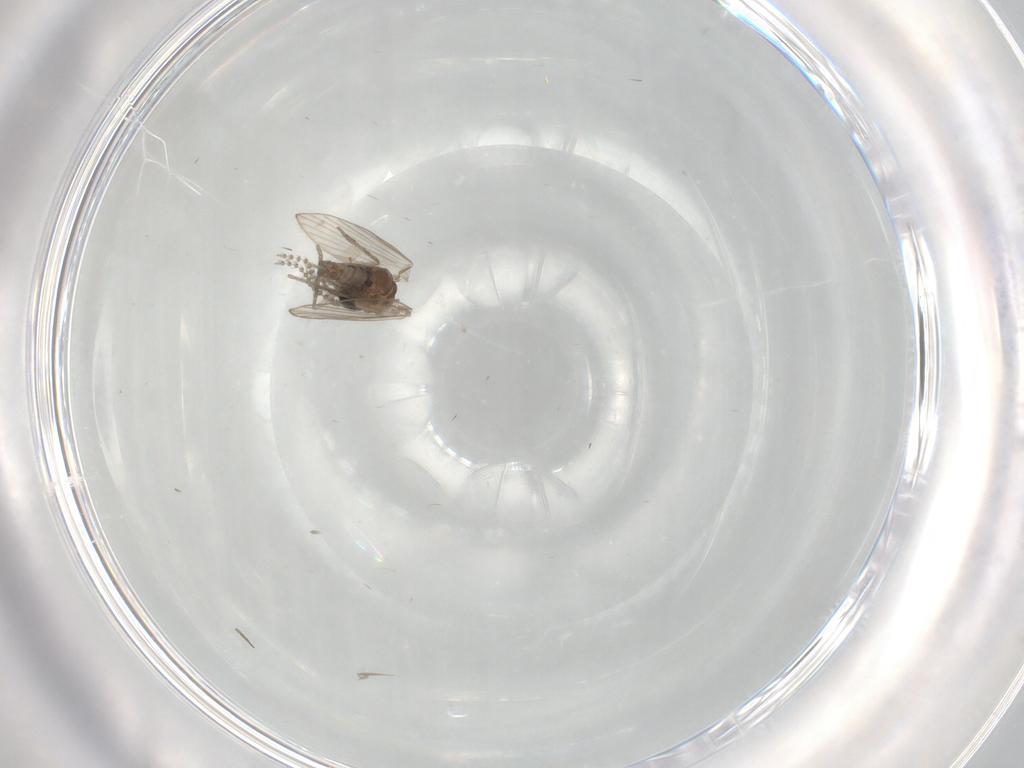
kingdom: Animalia
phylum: Arthropoda
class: Insecta
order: Diptera
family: Psychodidae
